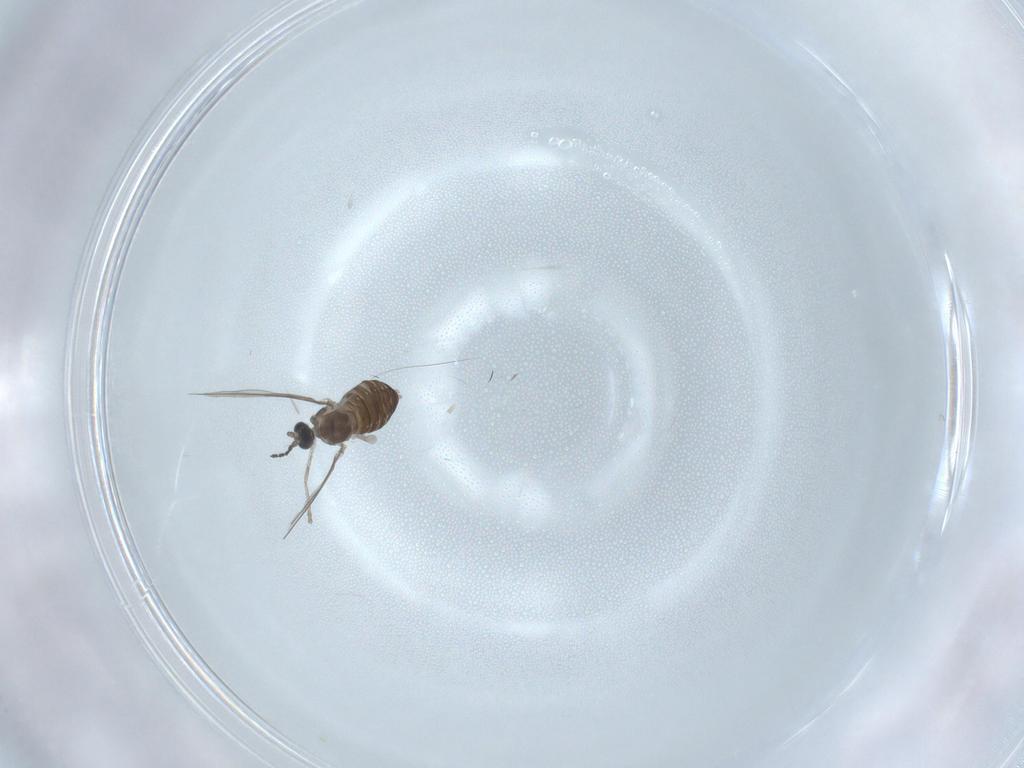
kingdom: Animalia
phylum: Arthropoda
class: Insecta
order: Diptera
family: Cecidomyiidae
